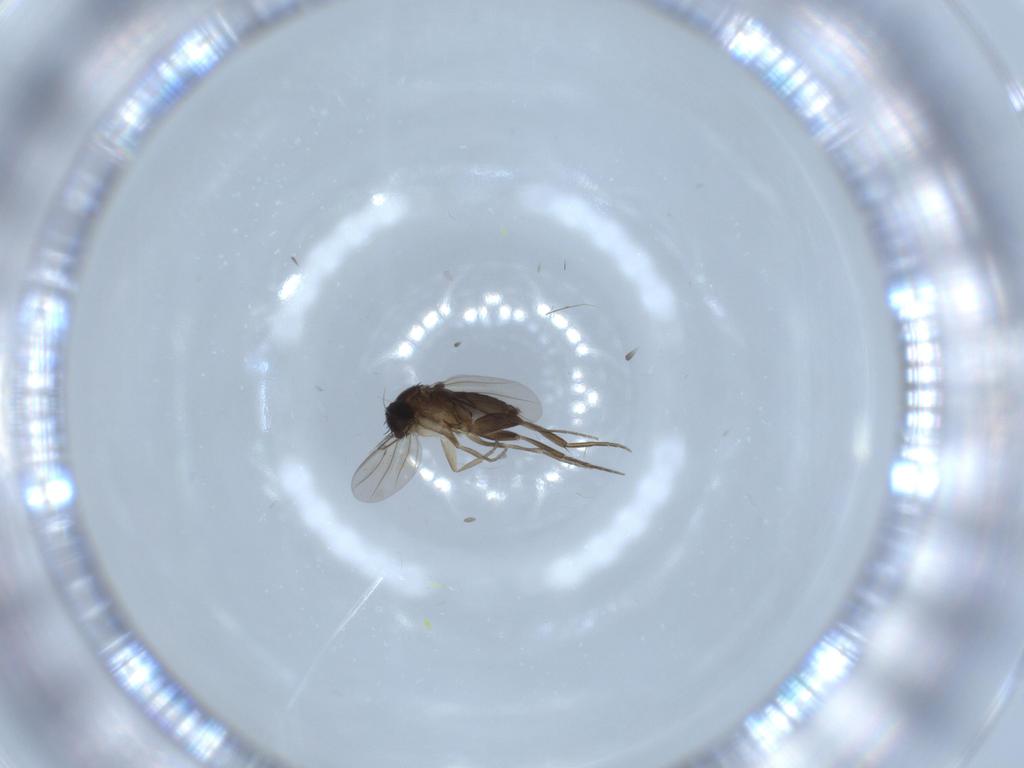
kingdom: Animalia
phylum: Arthropoda
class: Insecta
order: Diptera
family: Phoridae
